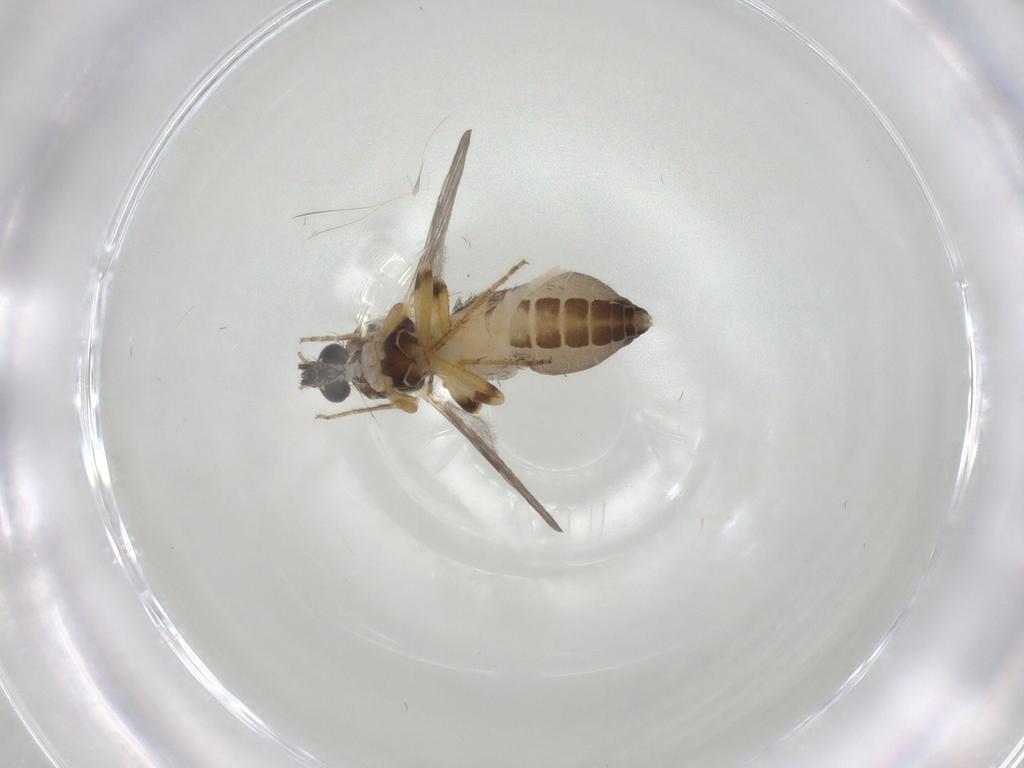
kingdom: Animalia
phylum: Arthropoda
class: Insecta
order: Diptera
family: Ceratopogonidae
